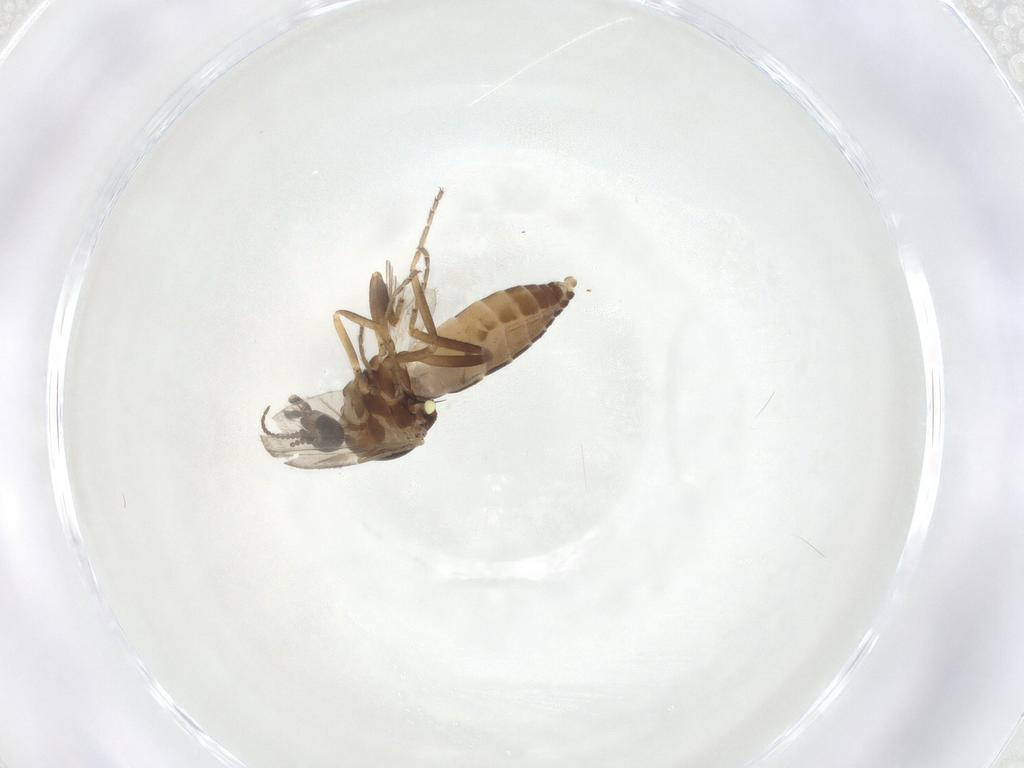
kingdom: Animalia
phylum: Arthropoda
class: Insecta
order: Diptera
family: Ceratopogonidae
